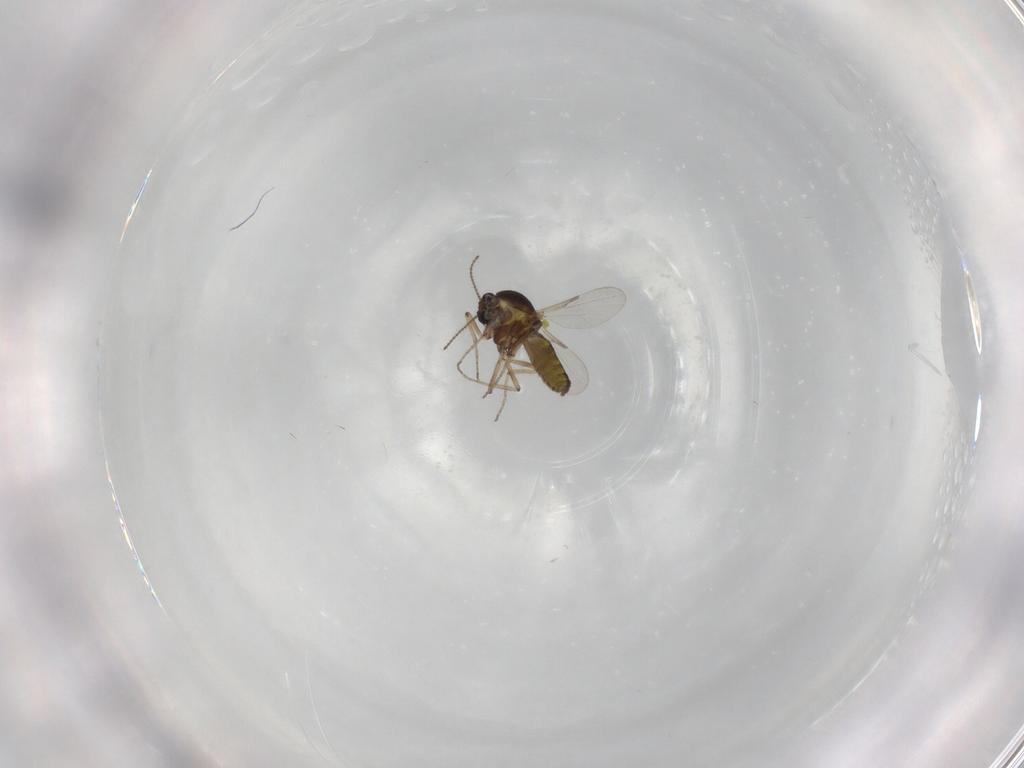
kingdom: Animalia
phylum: Arthropoda
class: Insecta
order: Diptera
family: Ceratopogonidae
